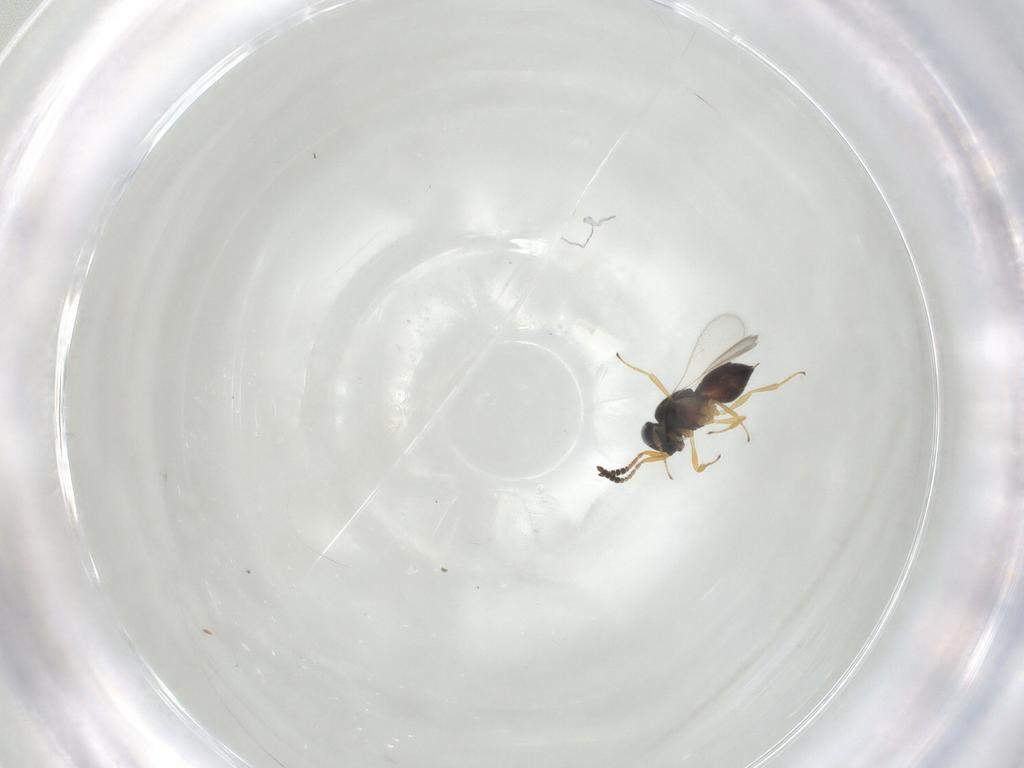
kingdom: Animalia
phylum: Arthropoda
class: Insecta
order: Hymenoptera
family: Scelionidae
